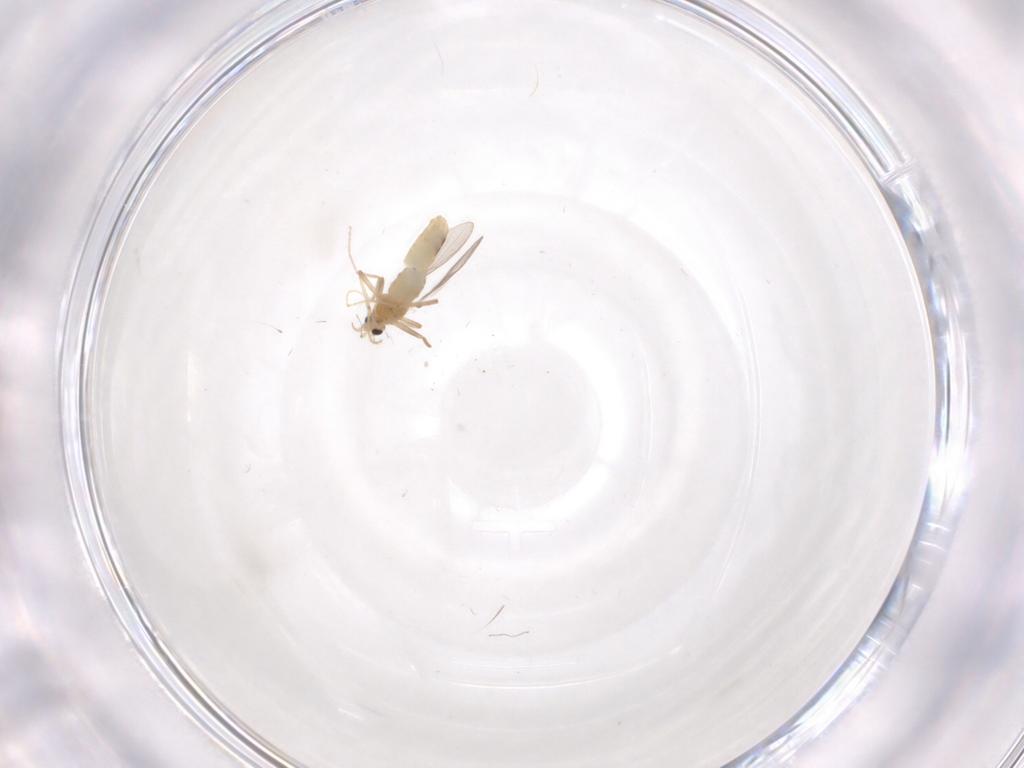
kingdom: Animalia
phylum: Arthropoda
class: Insecta
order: Diptera
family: Chironomidae
